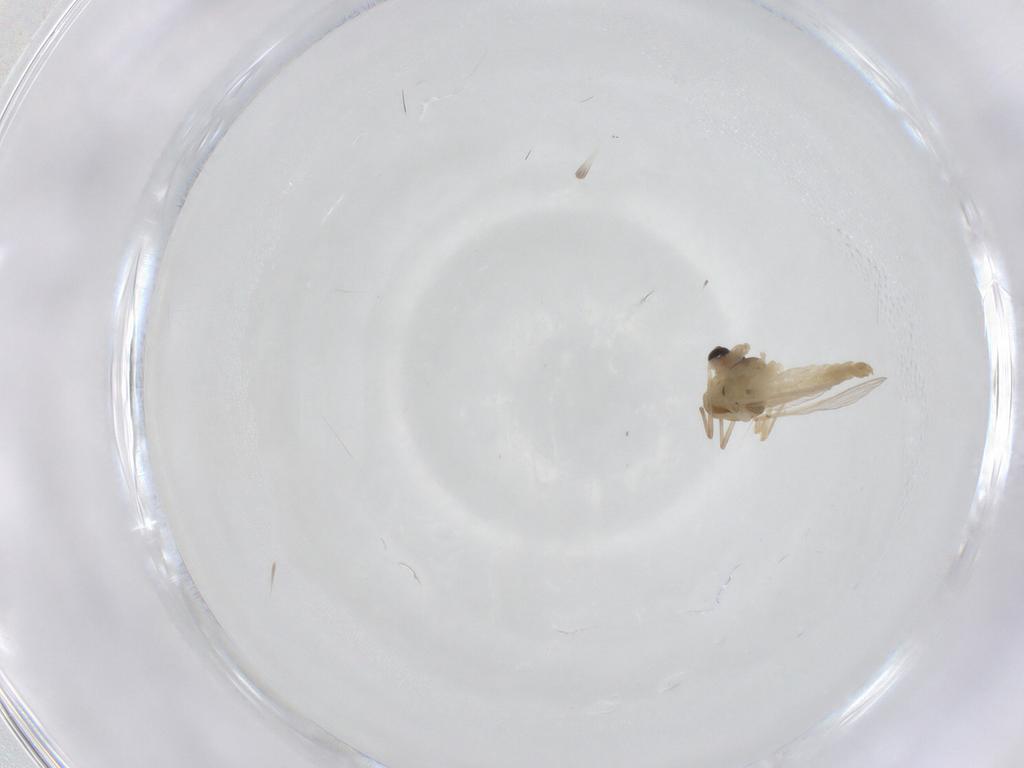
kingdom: Animalia
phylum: Arthropoda
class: Insecta
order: Diptera
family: Chironomidae
